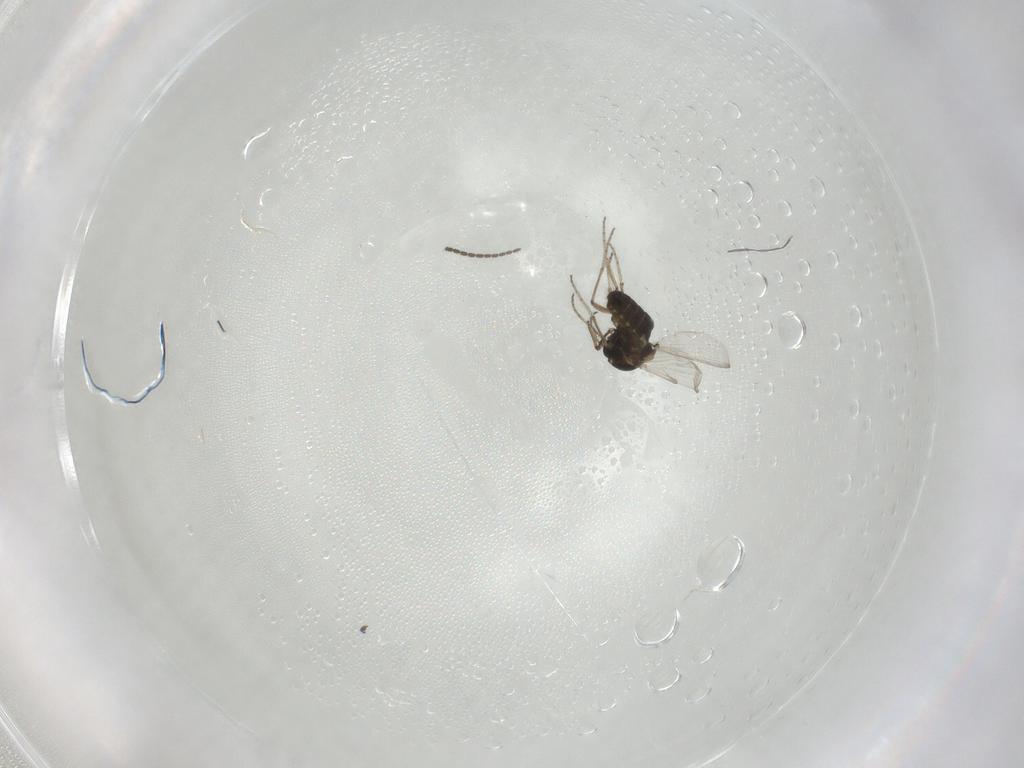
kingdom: Animalia
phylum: Arthropoda
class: Insecta
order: Diptera
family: Ceratopogonidae
